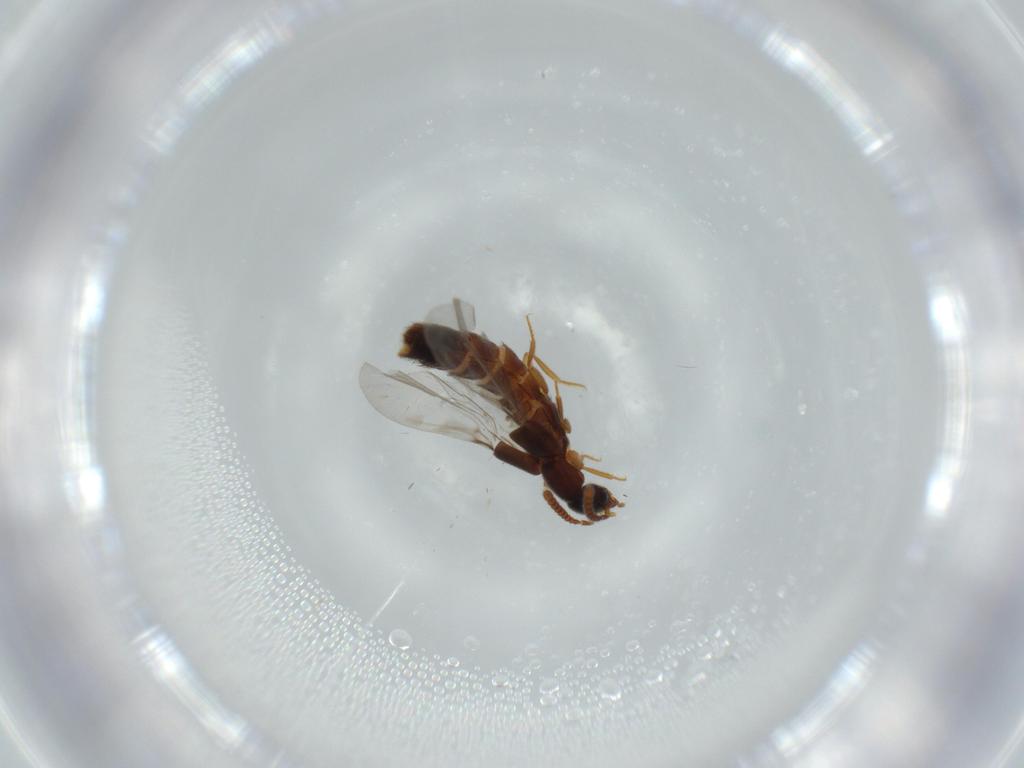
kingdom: Animalia
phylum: Arthropoda
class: Insecta
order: Coleoptera
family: Staphylinidae
